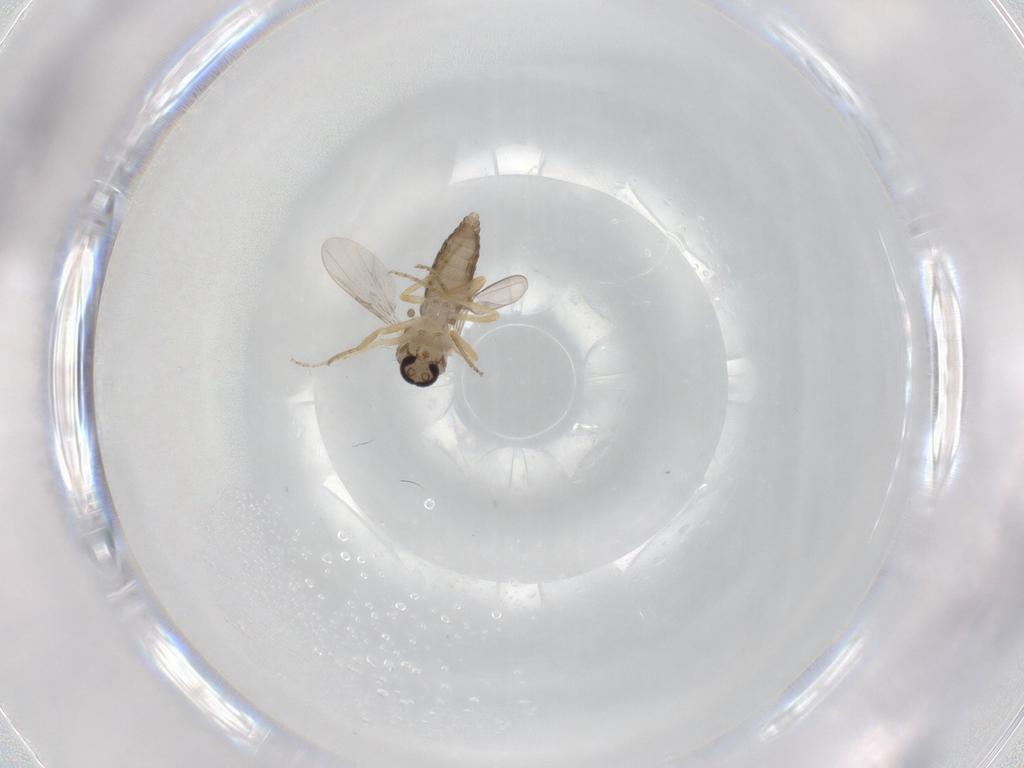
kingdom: Animalia
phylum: Arthropoda
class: Insecta
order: Diptera
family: Ceratopogonidae
